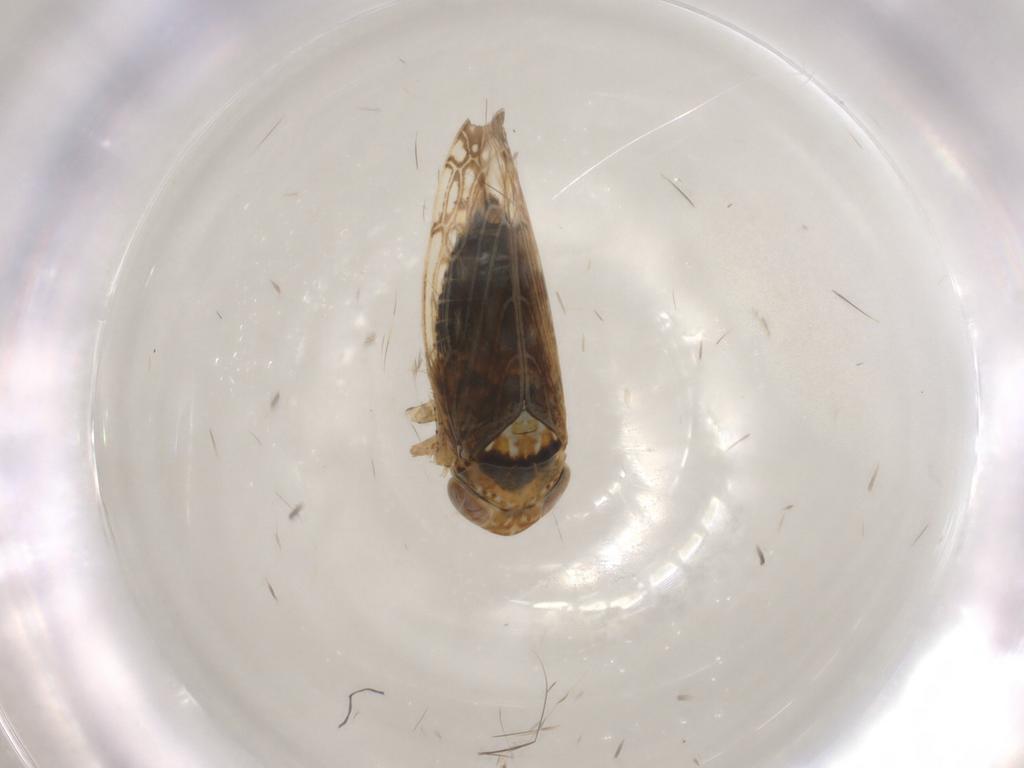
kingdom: Animalia
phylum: Arthropoda
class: Insecta
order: Hemiptera
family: Cicadellidae
